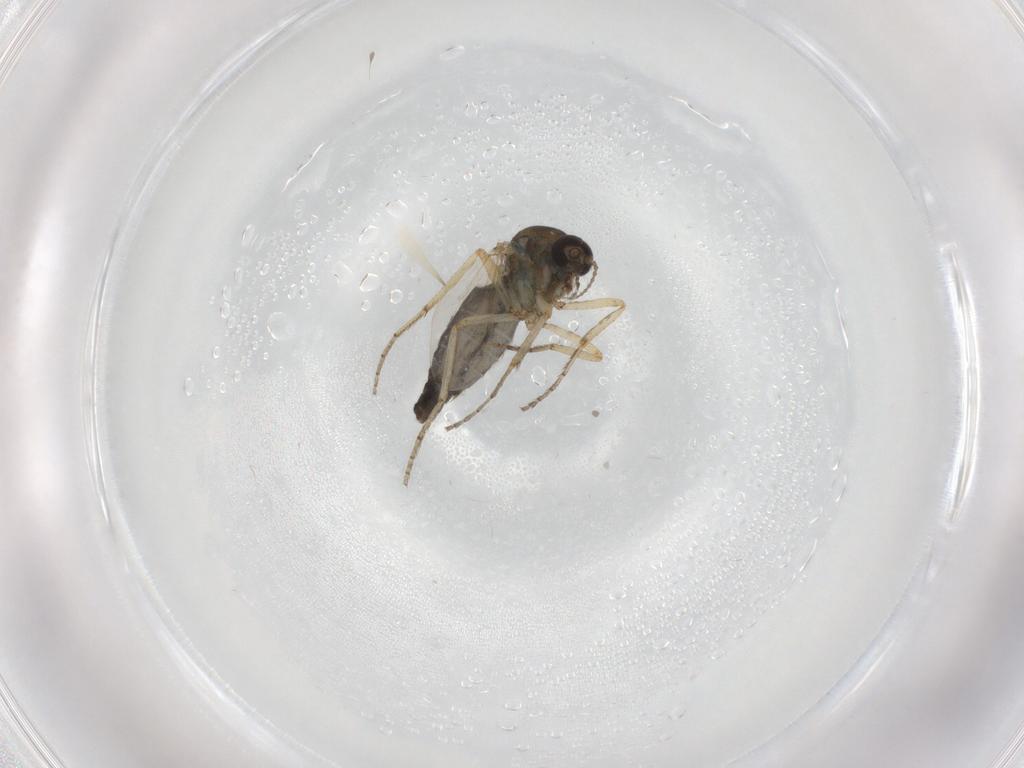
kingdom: Animalia
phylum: Arthropoda
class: Insecta
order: Diptera
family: Ceratopogonidae
